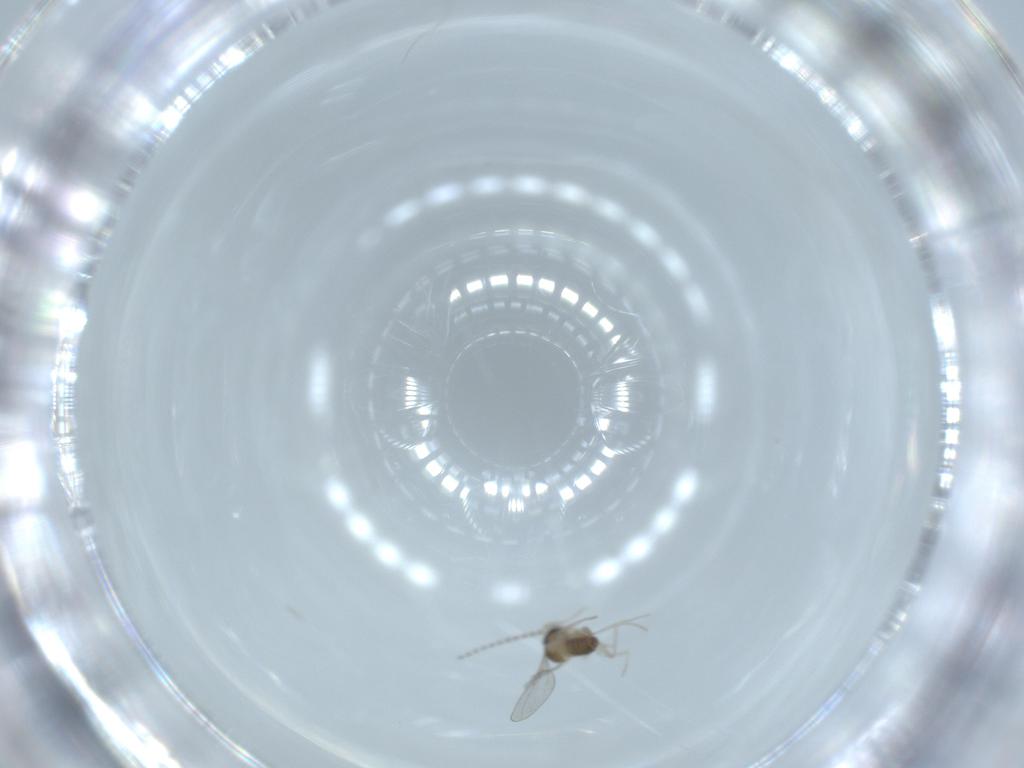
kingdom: Animalia
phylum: Arthropoda
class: Insecta
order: Diptera
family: Cecidomyiidae
